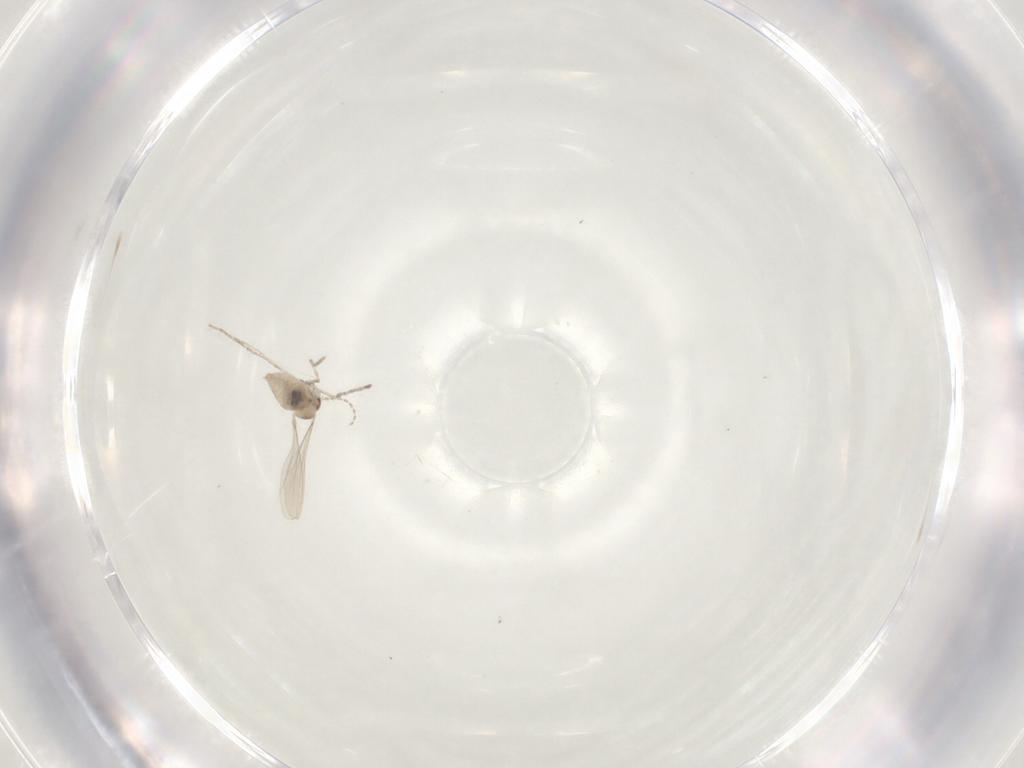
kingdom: Animalia
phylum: Arthropoda
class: Insecta
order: Diptera
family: Cecidomyiidae
